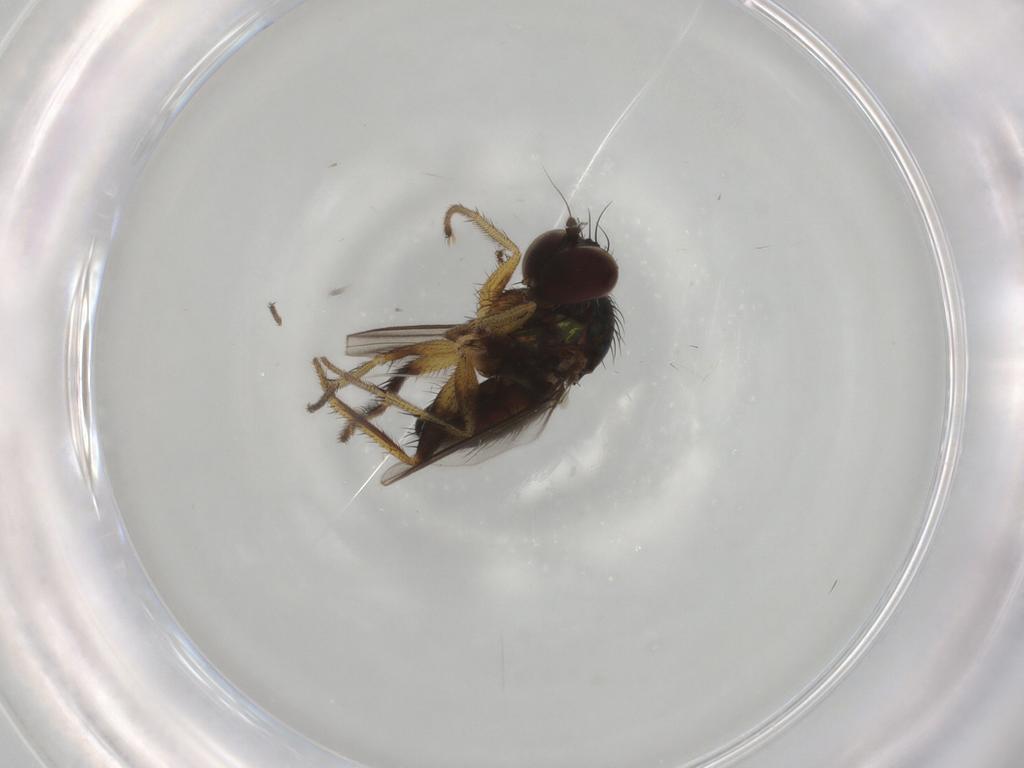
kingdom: Animalia
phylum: Arthropoda
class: Insecta
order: Diptera
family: Dolichopodidae
